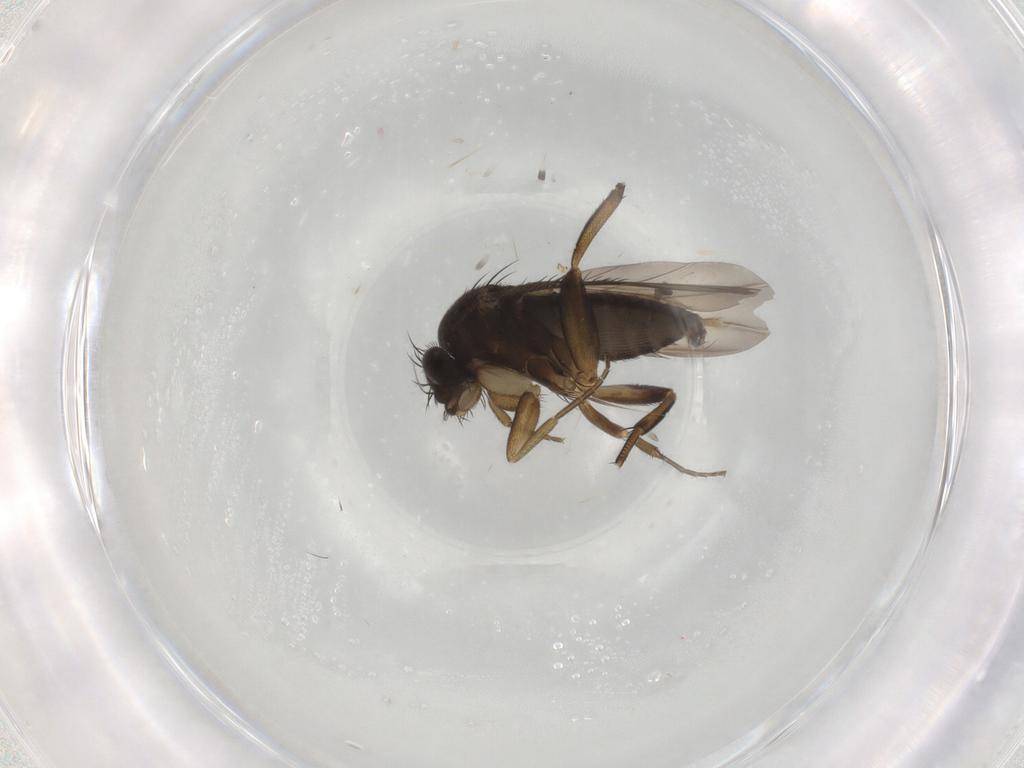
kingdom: Animalia
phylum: Arthropoda
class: Insecta
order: Diptera
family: Phoridae
